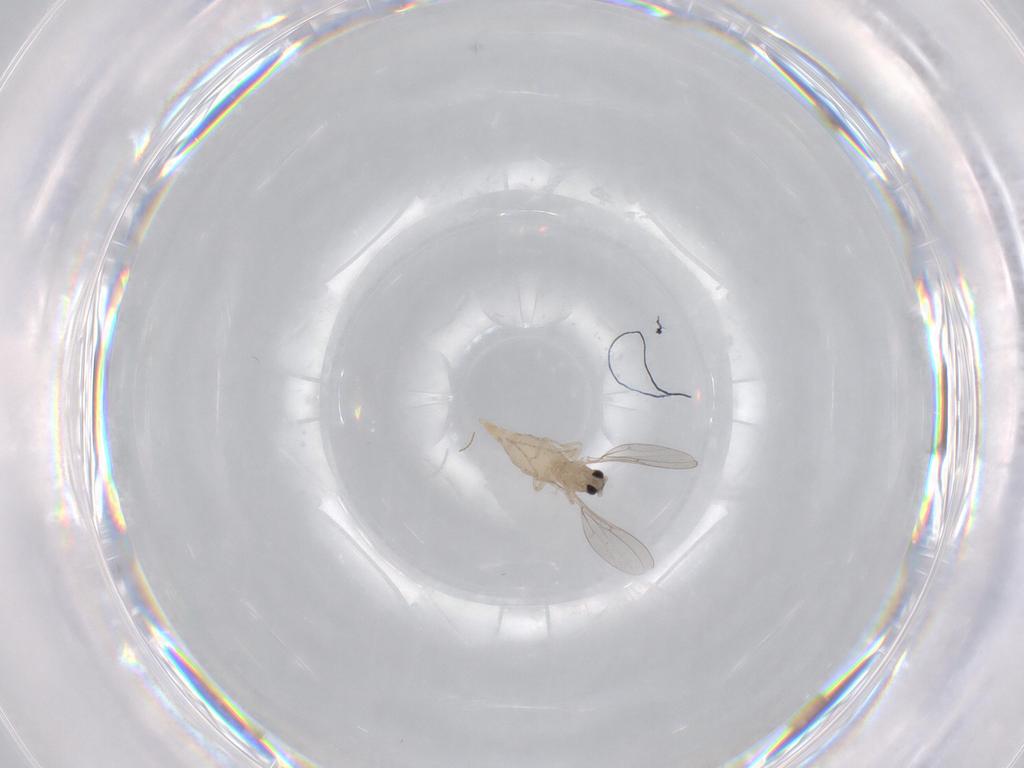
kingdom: Animalia
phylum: Arthropoda
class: Insecta
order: Diptera
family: Cecidomyiidae
